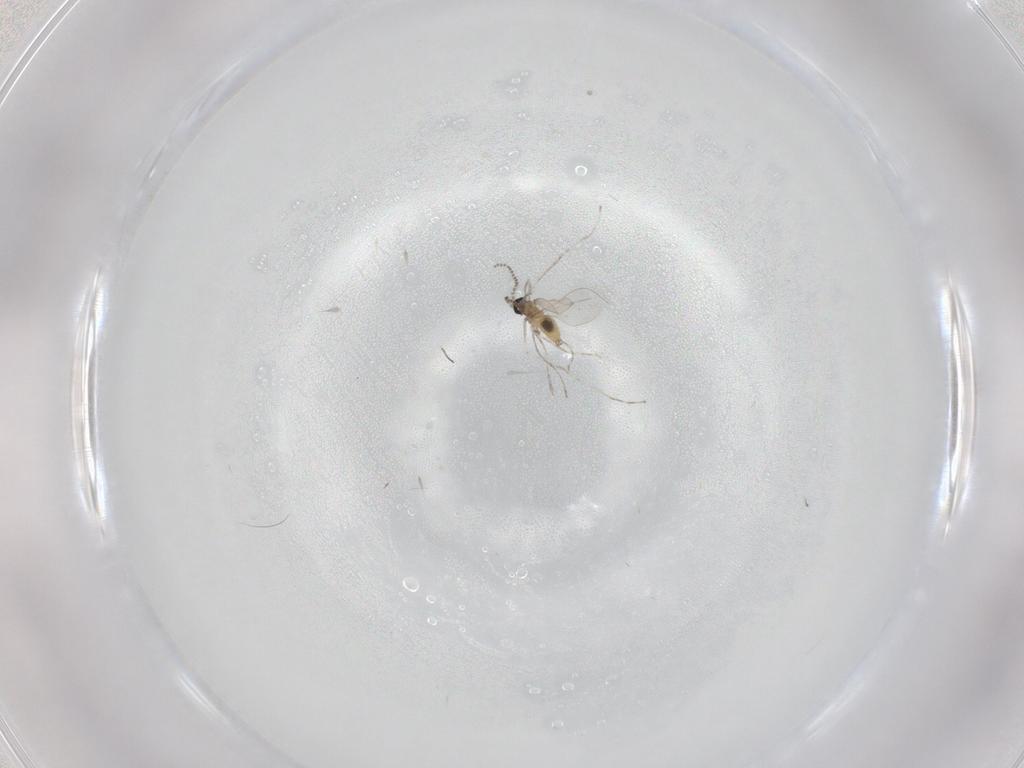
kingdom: Animalia
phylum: Arthropoda
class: Insecta
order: Diptera
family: Cecidomyiidae
